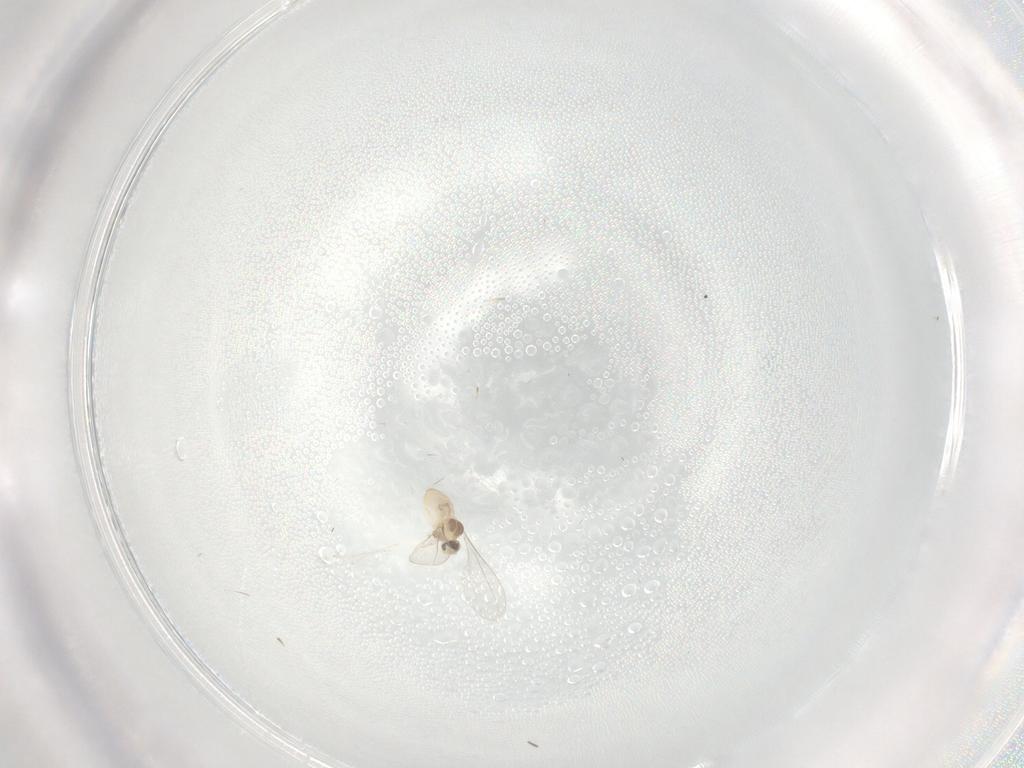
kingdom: Animalia
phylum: Arthropoda
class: Insecta
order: Diptera
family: Cecidomyiidae
